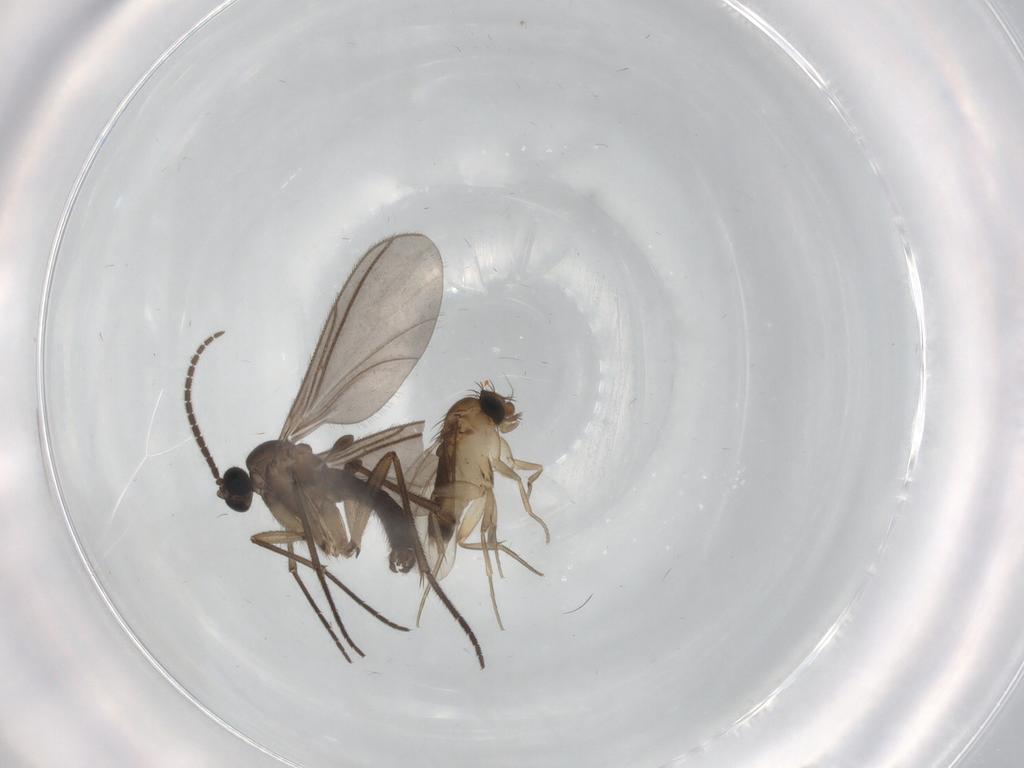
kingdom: Animalia
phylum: Arthropoda
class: Insecta
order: Diptera
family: Sciaridae
